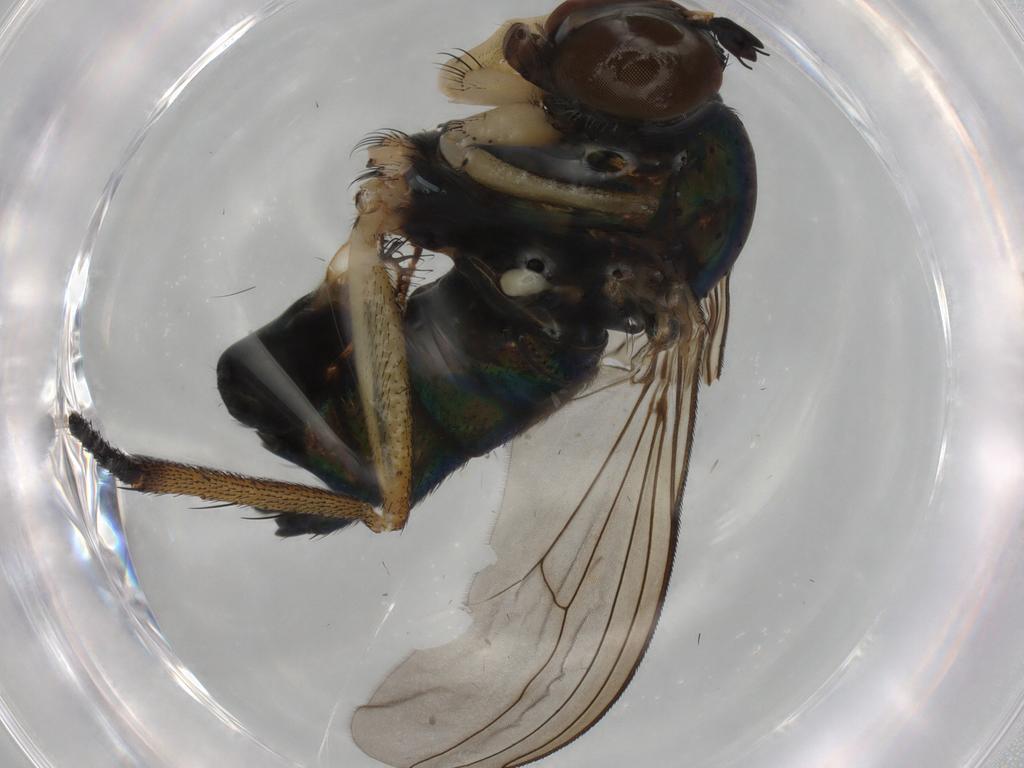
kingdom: Animalia
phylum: Arthropoda
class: Insecta
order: Diptera
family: Dolichopodidae
